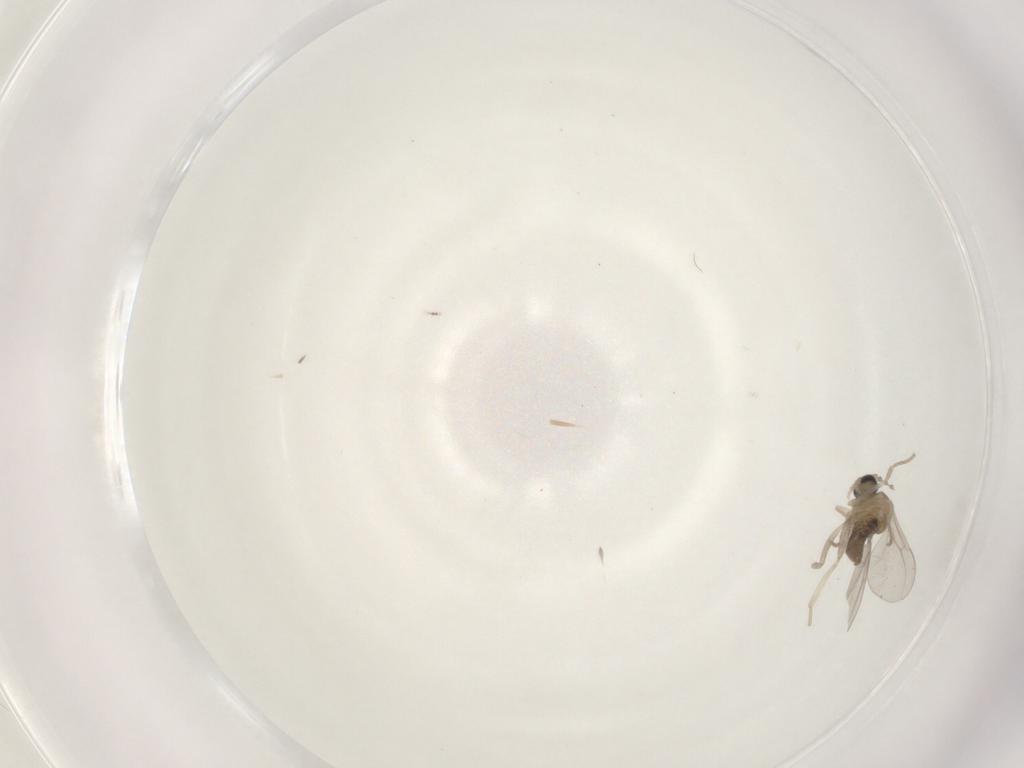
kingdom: Animalia
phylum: Arthropoda
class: Insecta
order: Diptera
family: Cecidomyiidae
